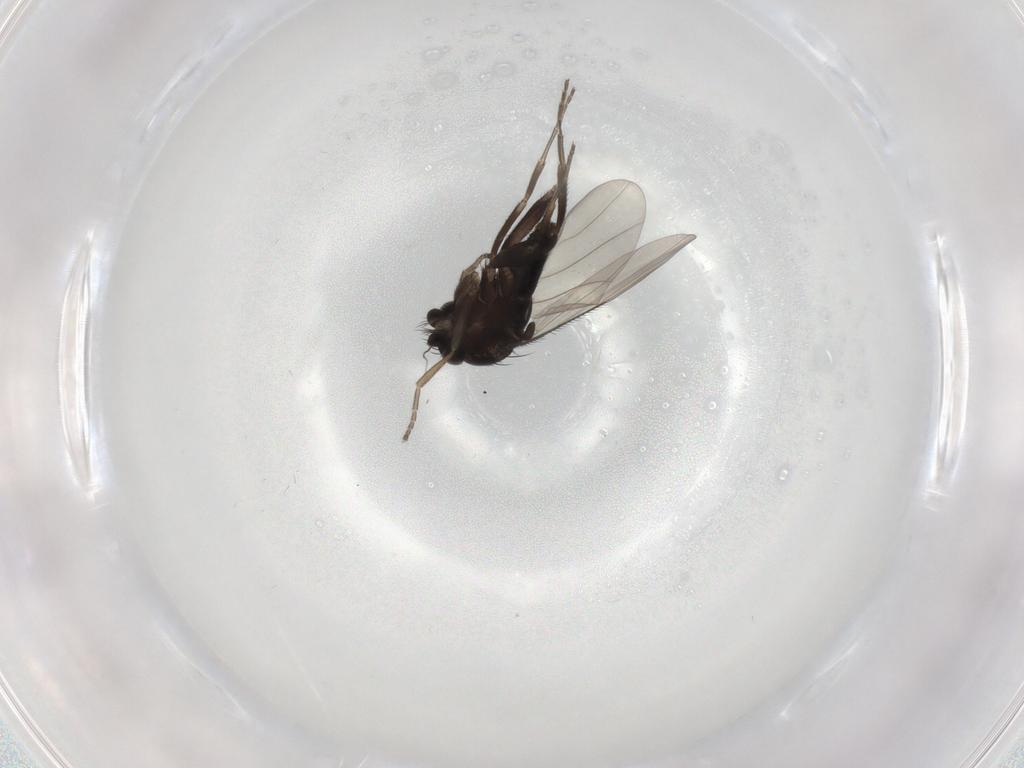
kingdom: Animalia
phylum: Arthropoda
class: Insecta
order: Diptera
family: Phoridae
